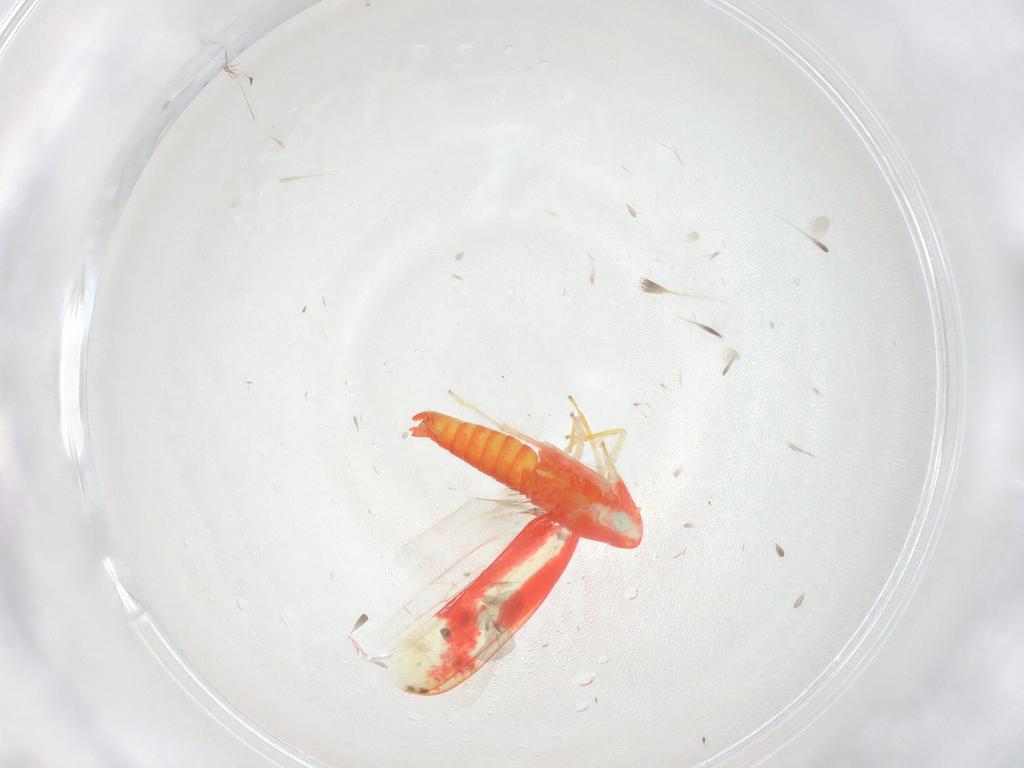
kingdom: Animalia
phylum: Arthropoda
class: Insecta
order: Hemiptera
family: Cicadellidae
